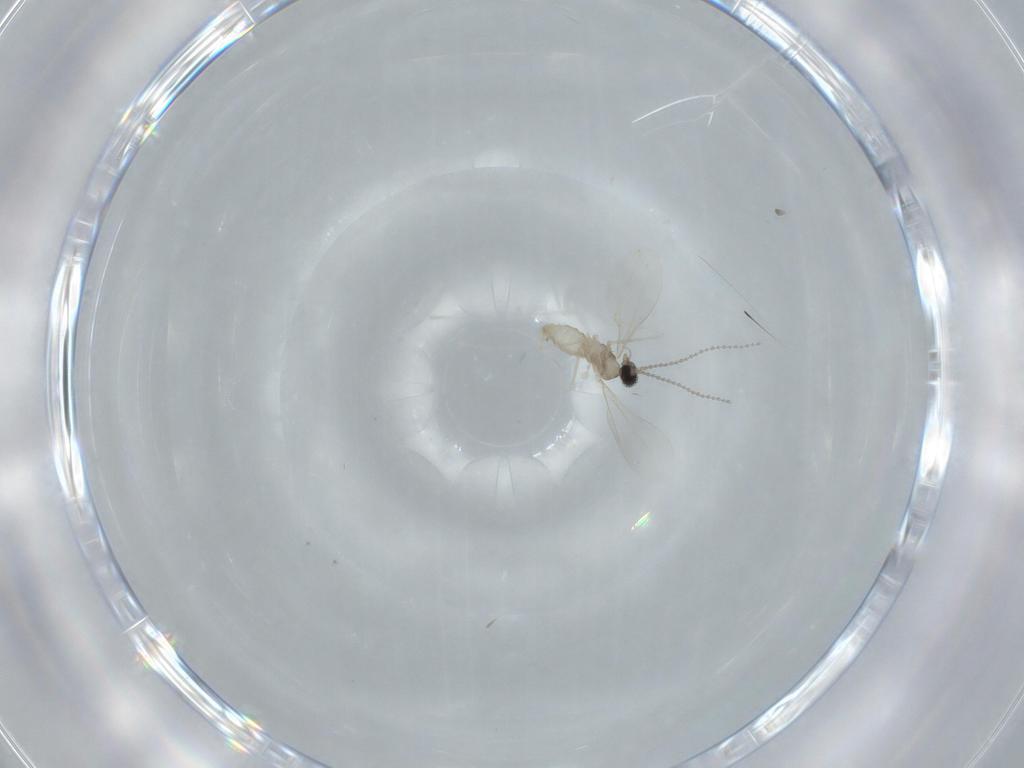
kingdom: Animalia
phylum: Arthropoda
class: Insecta
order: Diptera
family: Cecidomyiidae
